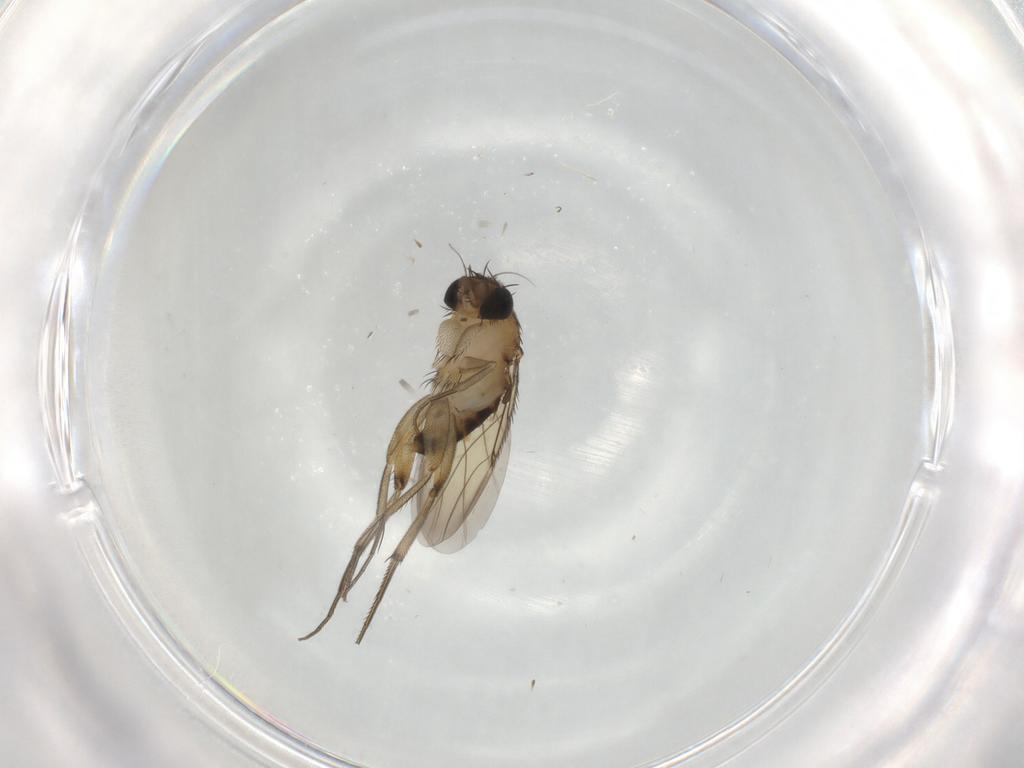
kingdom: Animalia
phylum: Arthropoda
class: Insecta
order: Diptera
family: Phoridae
